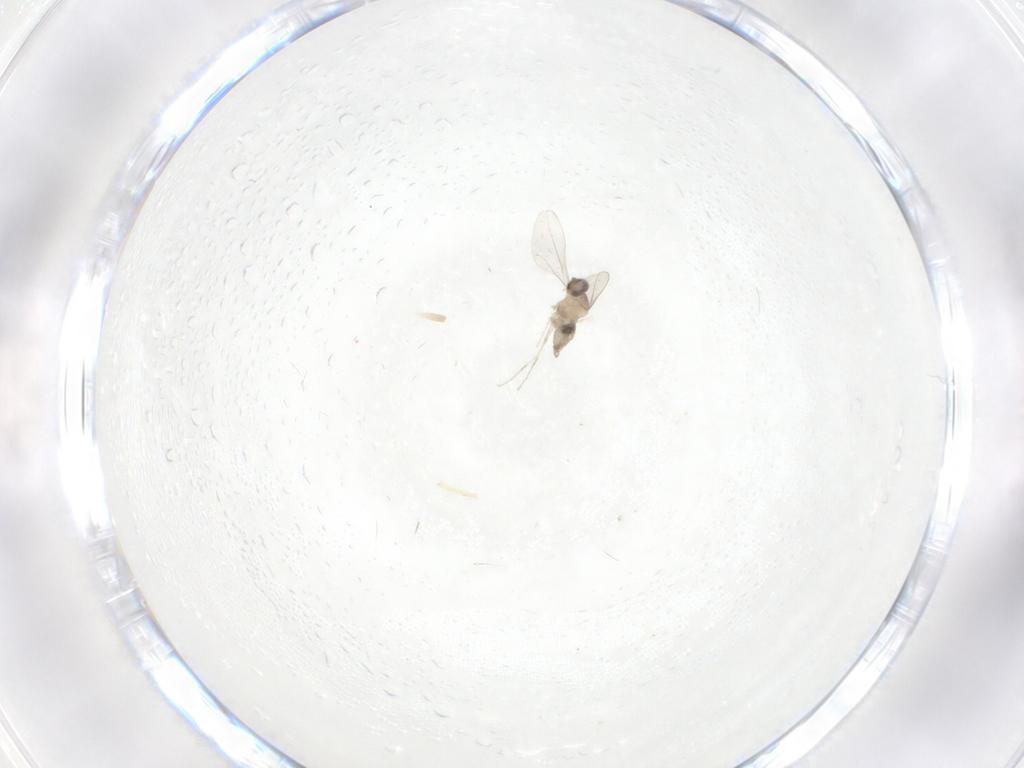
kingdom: Animalia
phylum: Arthropoda
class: Insecta
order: Diptera
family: Cecidomyiidae
